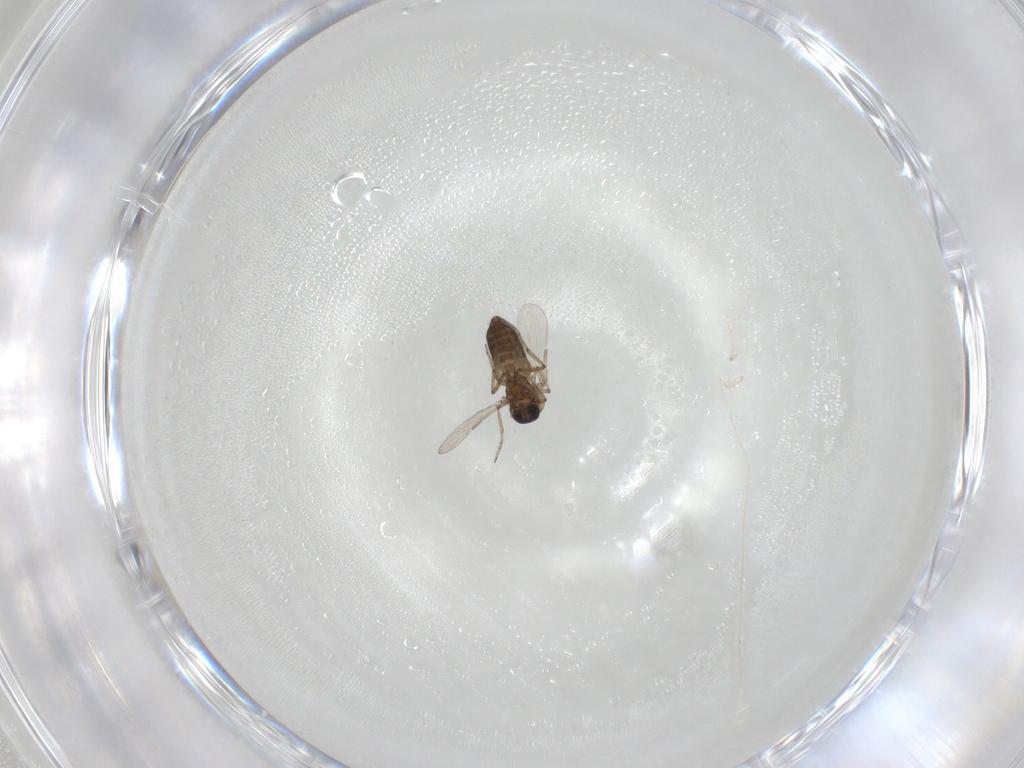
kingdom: Animalia
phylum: Arthropoda
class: Insecta
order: Diptera
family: Ceratopogonidae
